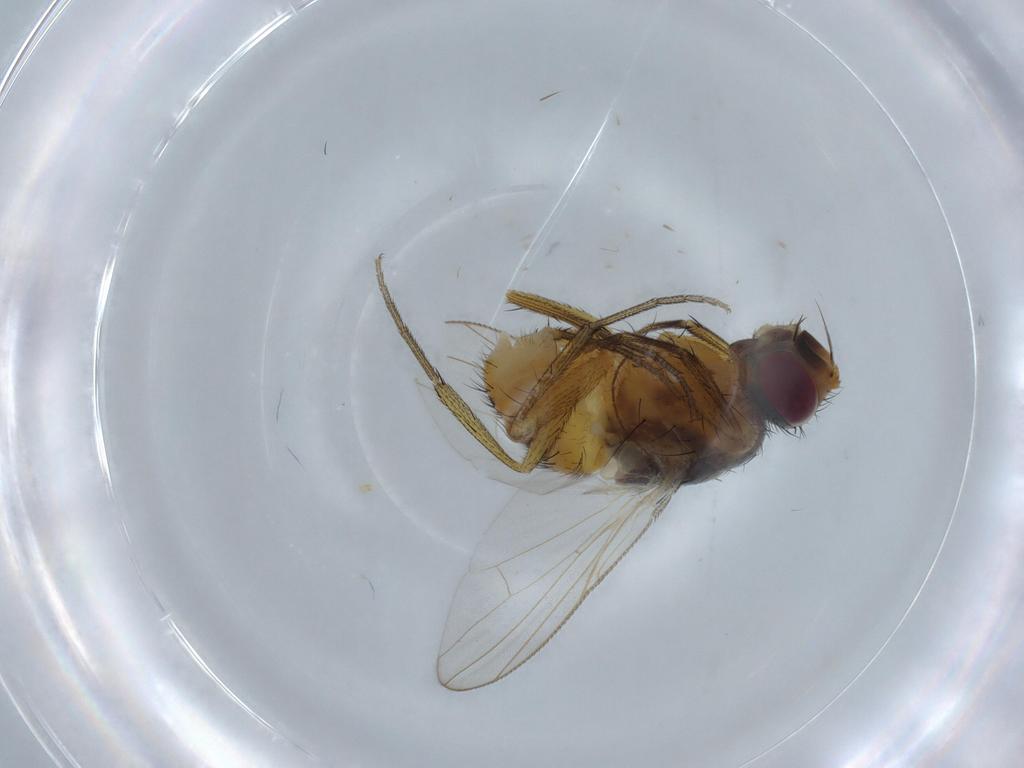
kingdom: Animalia
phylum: Arthropoda
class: Insecta
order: Diptera
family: Muscidae
